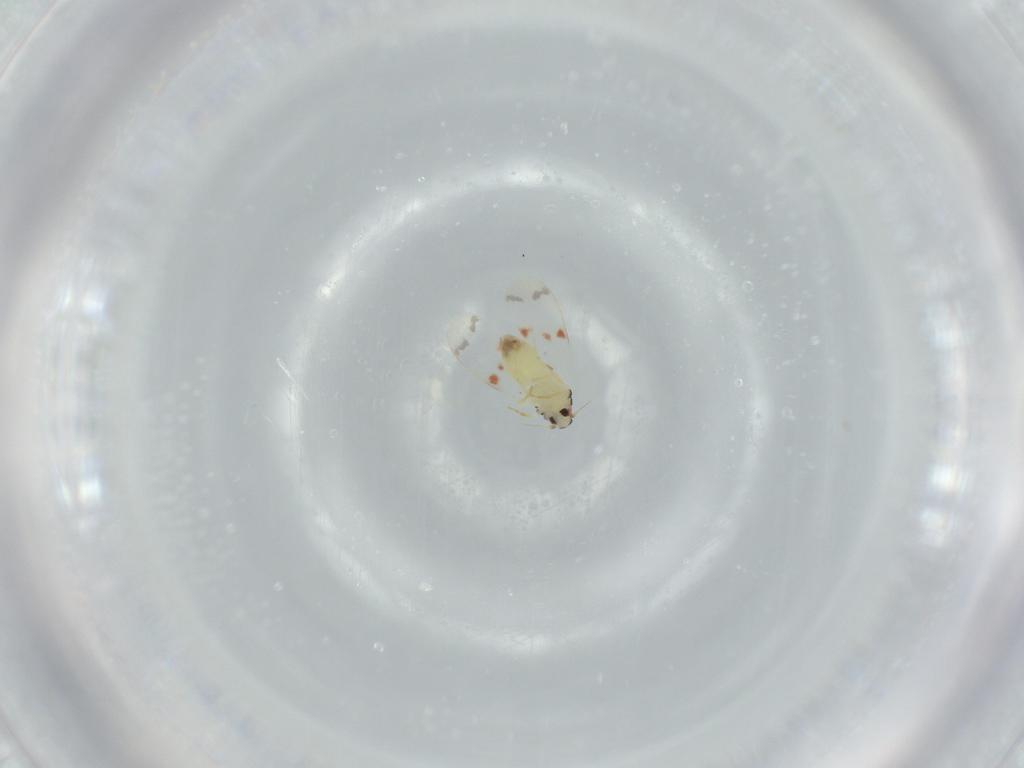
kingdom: Animalia
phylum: Arthropoda
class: Insecta
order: Hemiptera
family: Aleyrodidae
